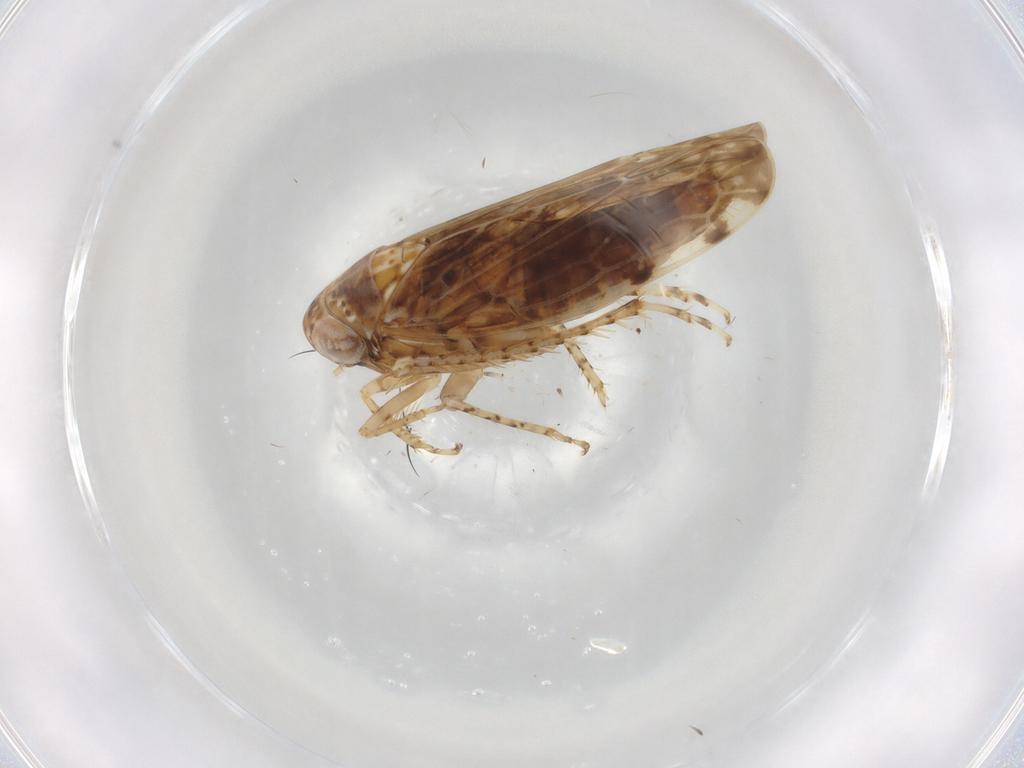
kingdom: Animalia
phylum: Arthropoda
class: Insecta
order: Hemiptera
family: Cicadellidae
